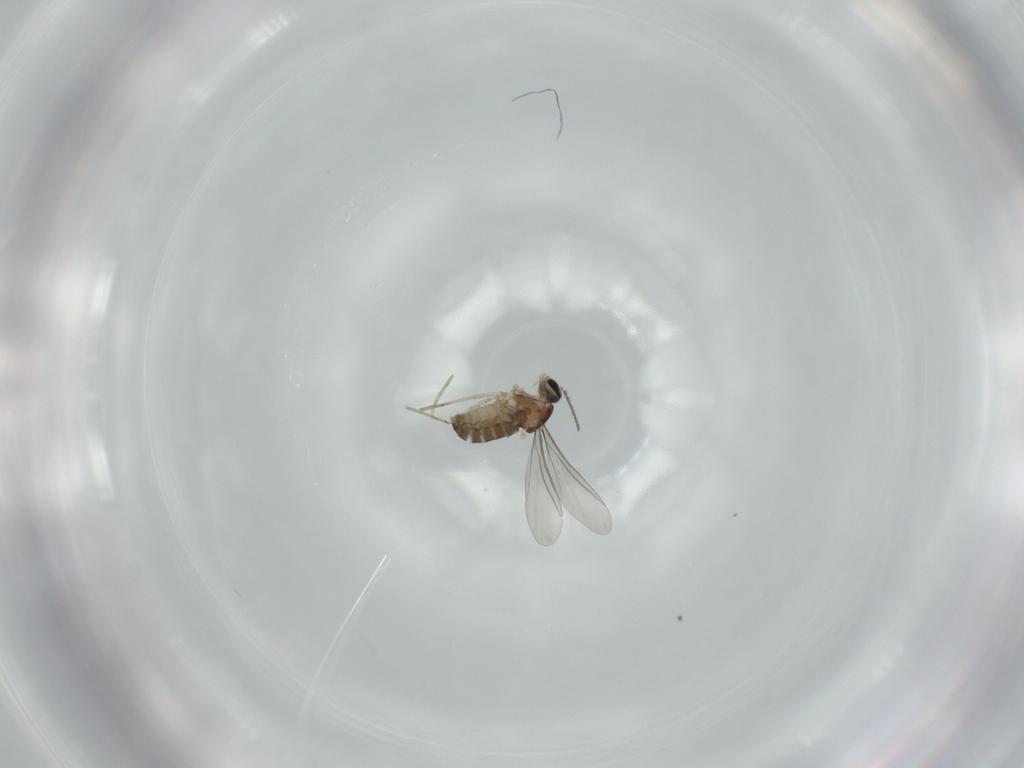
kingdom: Animalia
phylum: Arthropoda
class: Insecta
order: Diptera
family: Cecidomyiidae
